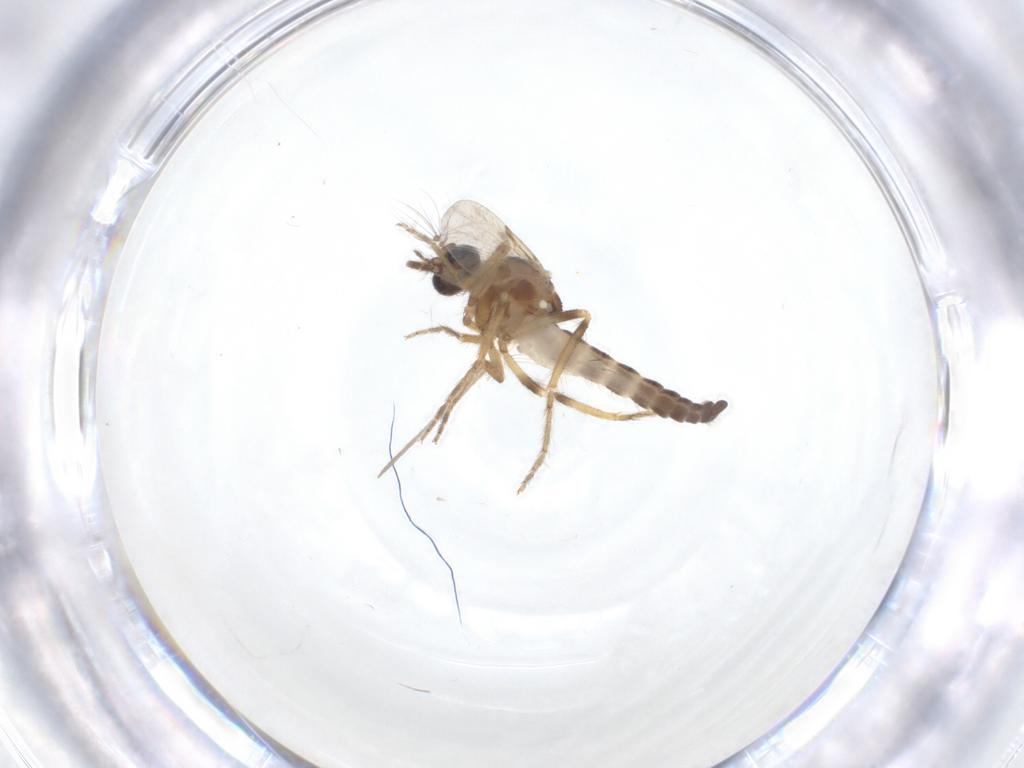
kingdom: Animalia
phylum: Arthropoda
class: Insecta
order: Diptera
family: Ceratopogonidae
